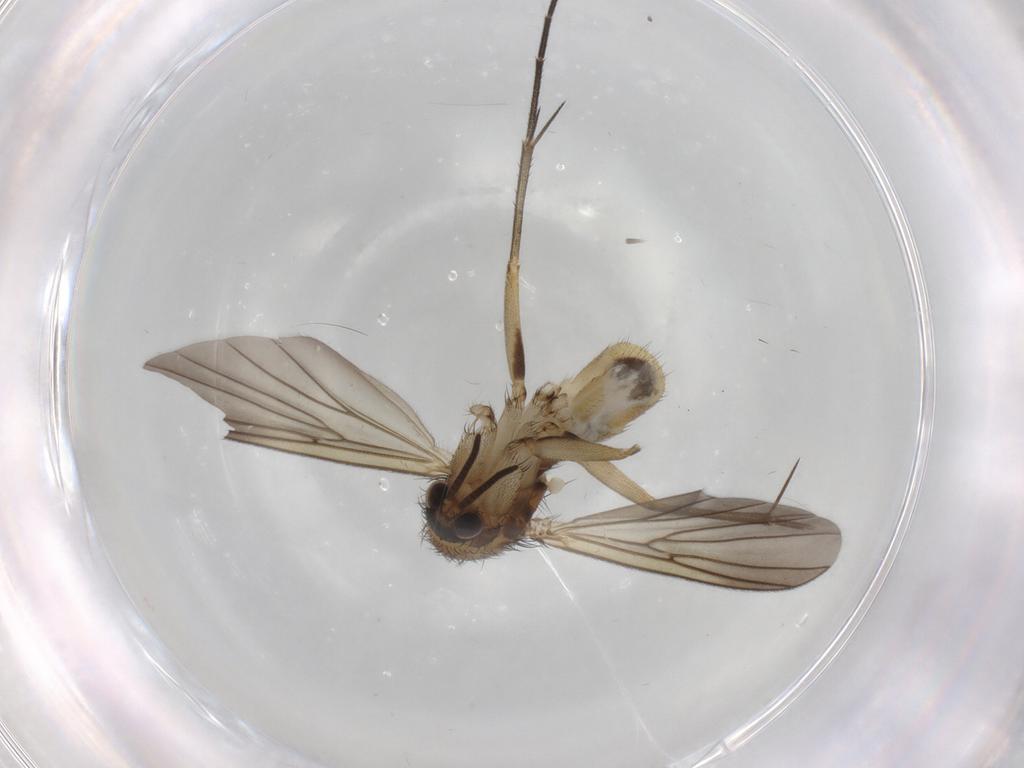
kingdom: Animalia
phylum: Arthropoda
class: Insecta
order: Diptera
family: Mycetophilidae
